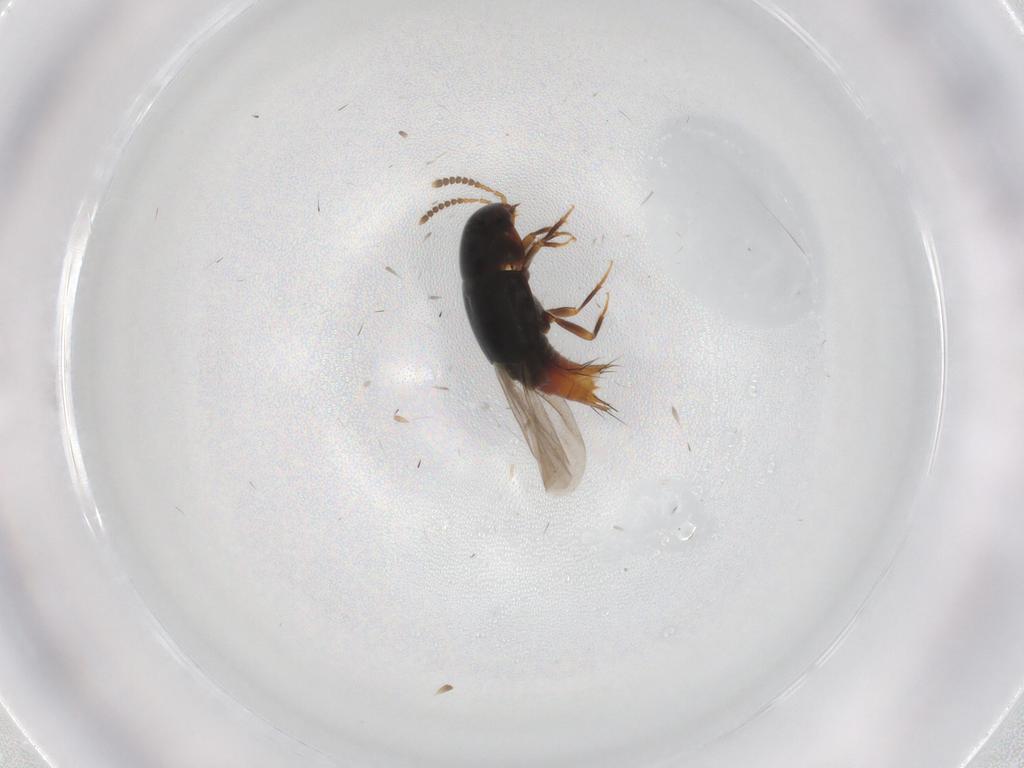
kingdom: Animalia
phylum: Arthropoda
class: Insecta
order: Coleoptera
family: Staphylinidae
